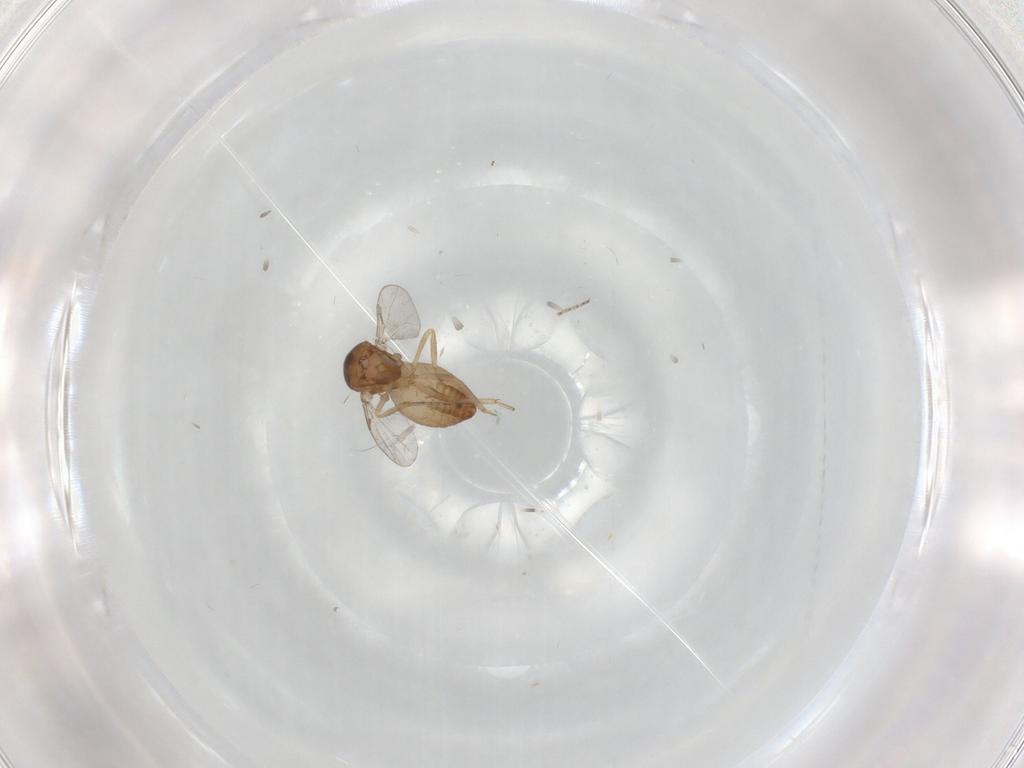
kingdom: Animalia
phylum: Arthropoda
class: Insecta
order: Diptera
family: Ceratopogonidae
